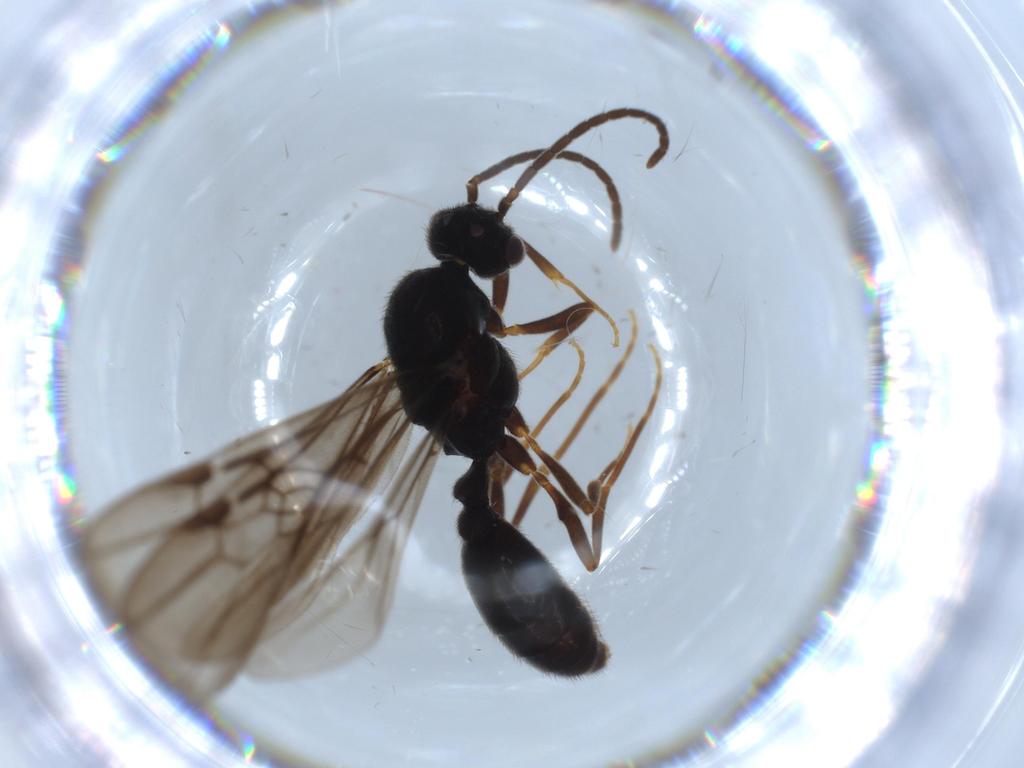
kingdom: Animalia
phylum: Arthropoda
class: Insecta
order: Hymenoptera
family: Formicidae
